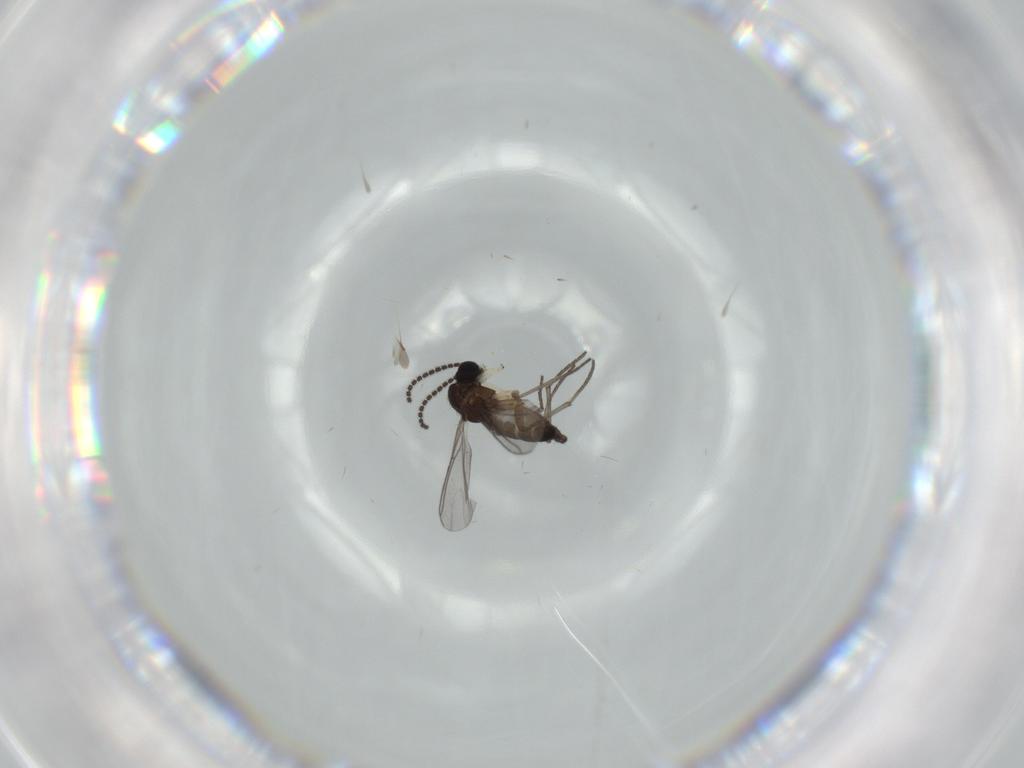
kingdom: Animalia
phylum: Arthropoda
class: Insecta
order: Diptera
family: Sciaridae
